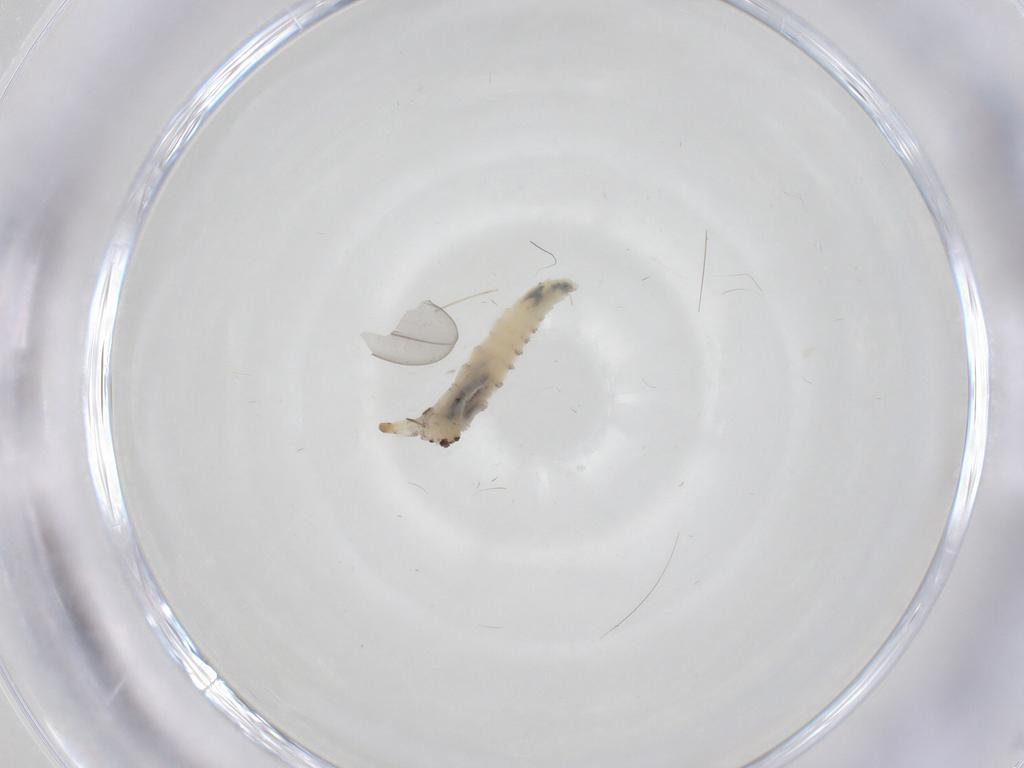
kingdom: Animalia
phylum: Arthropoda
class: Insecta
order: Diptera
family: Drosophilidae
